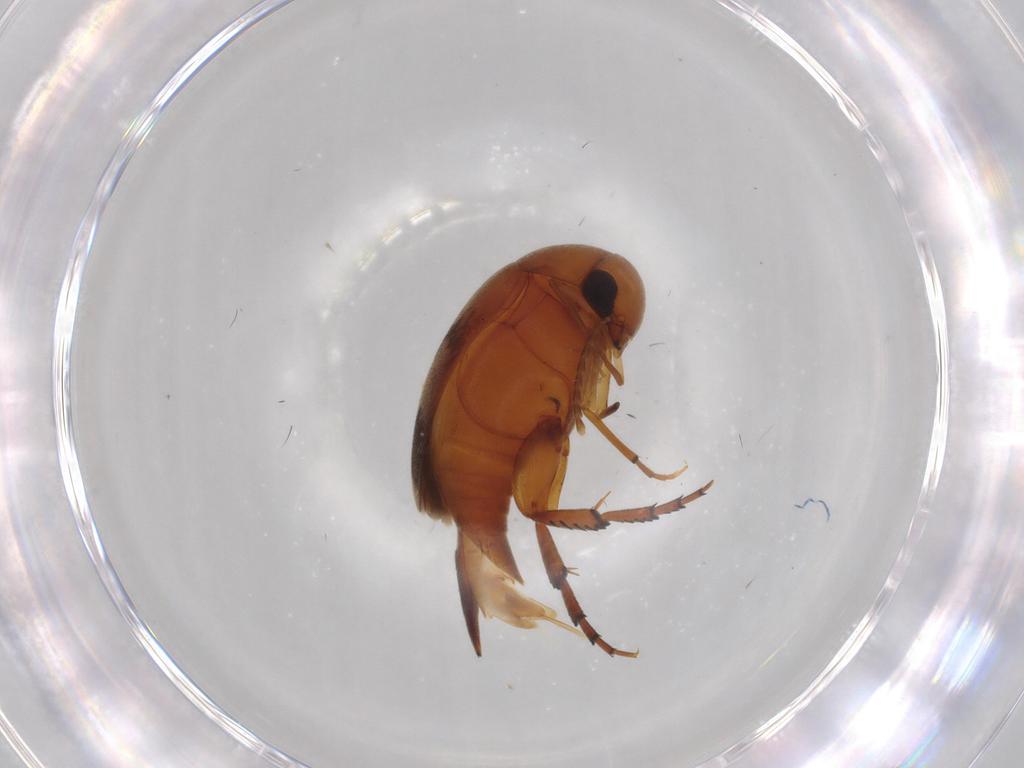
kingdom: Animalia
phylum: Arthropoda
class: Insecta
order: Coleoptera
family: Mordellidae
